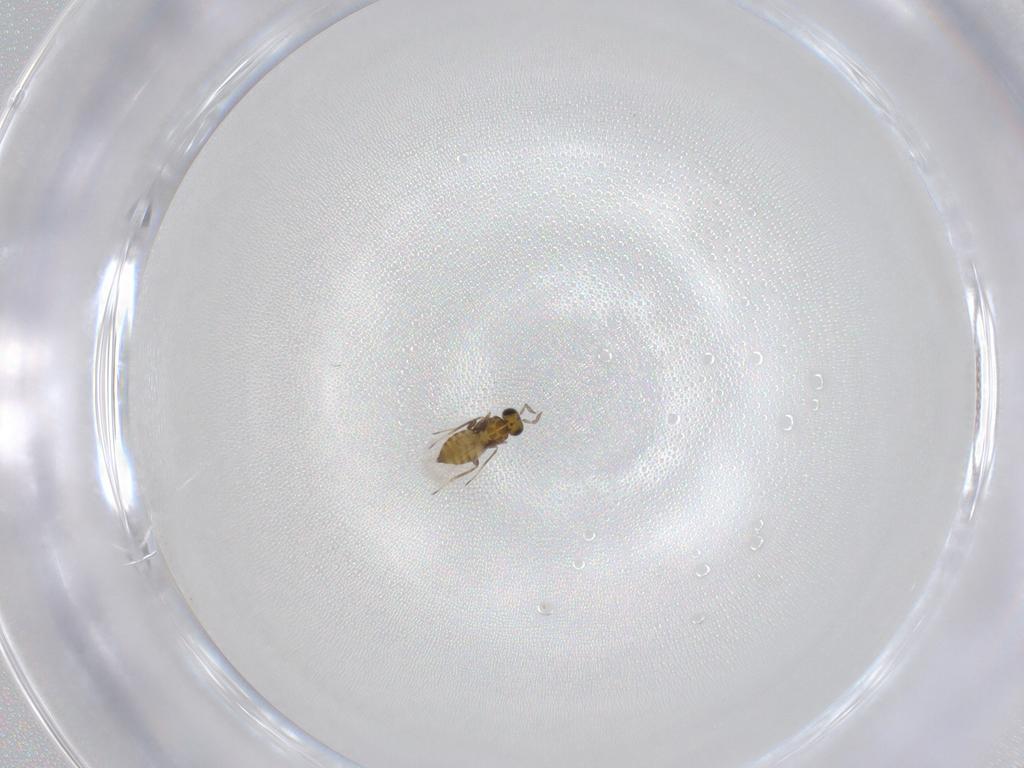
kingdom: Animalia
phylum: Arthropoda
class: Insecta
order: Hymenoptera
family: Trichogrammatidae
